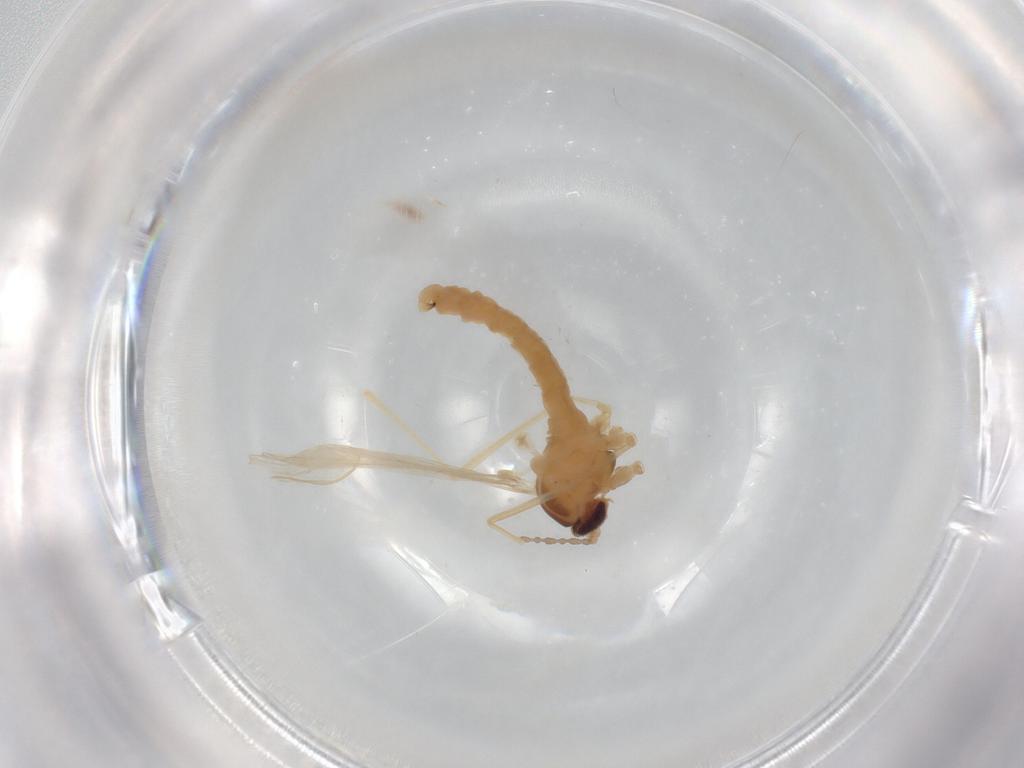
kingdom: Animalia
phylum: Arthropoda
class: Insecta
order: Diptera
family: Cecidomyiidae
